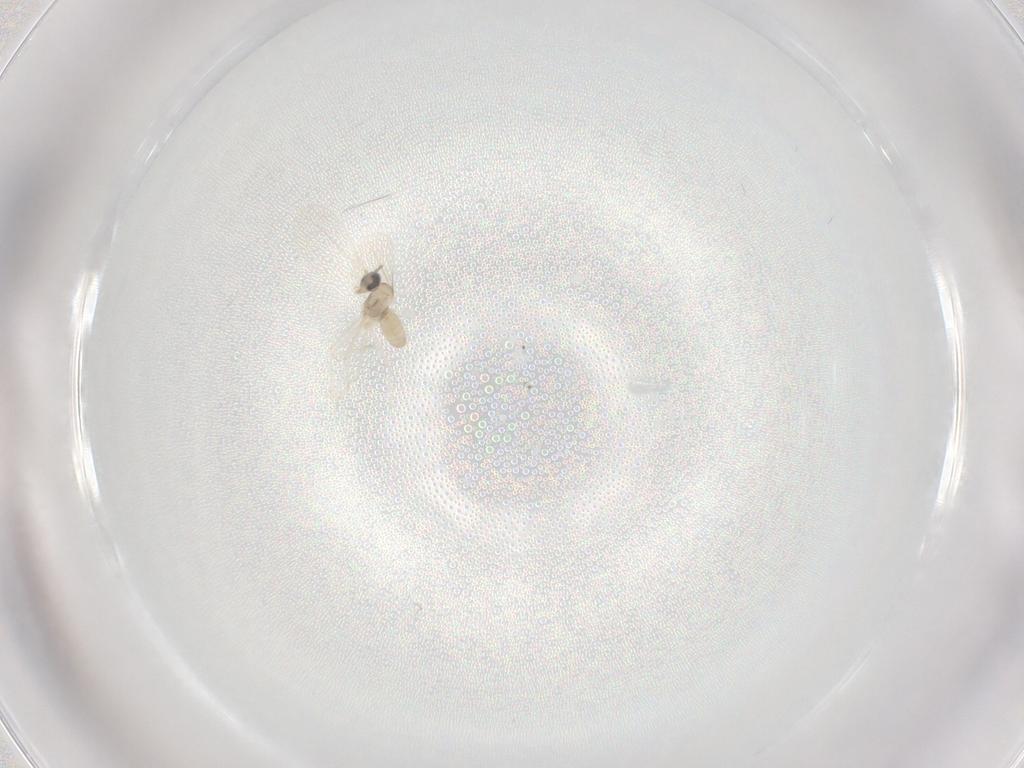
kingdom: Animalia
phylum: Arthropoda
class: Insecta
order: Diptera
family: Cecidomyiidae
